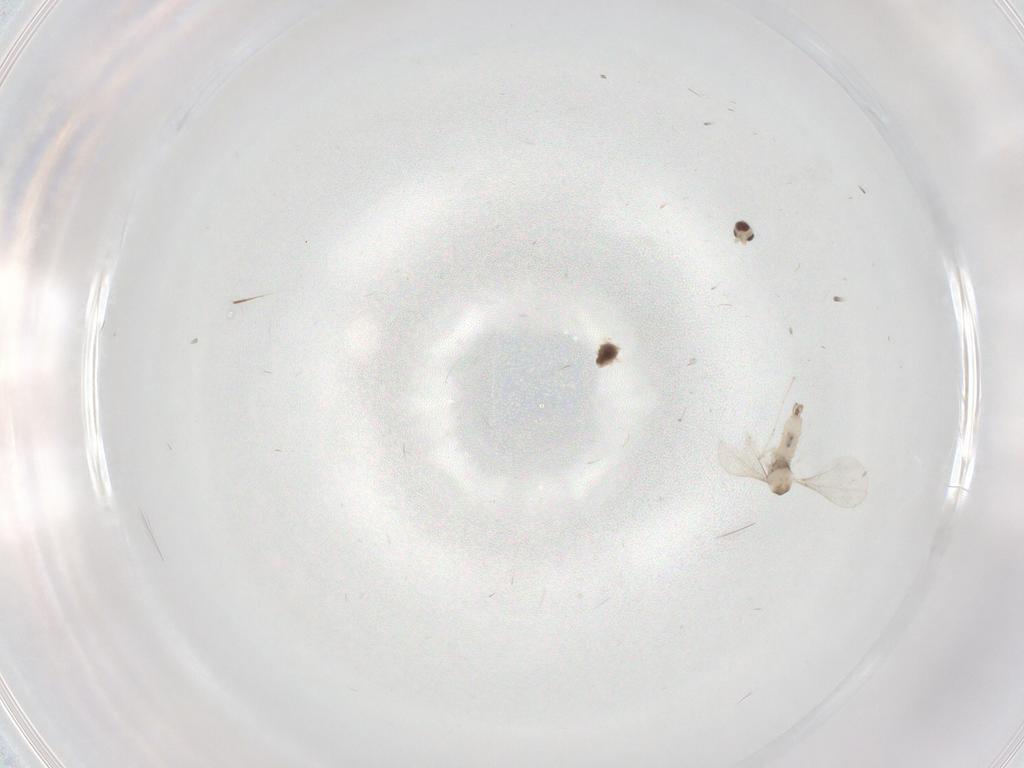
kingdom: Animalia
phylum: Arthropoda
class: Insecta
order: Diptera
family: Cecidomyiidae
